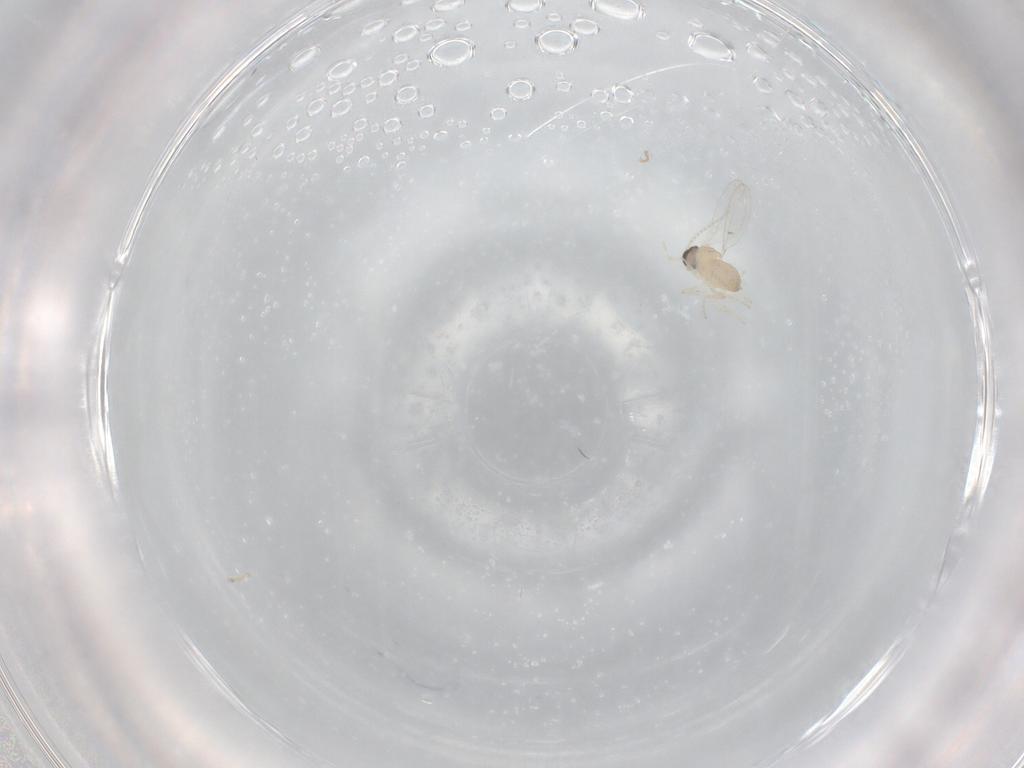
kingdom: Animalia
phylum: Arthropoda
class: Insecta
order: Diptera
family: Cecidomyiidae
